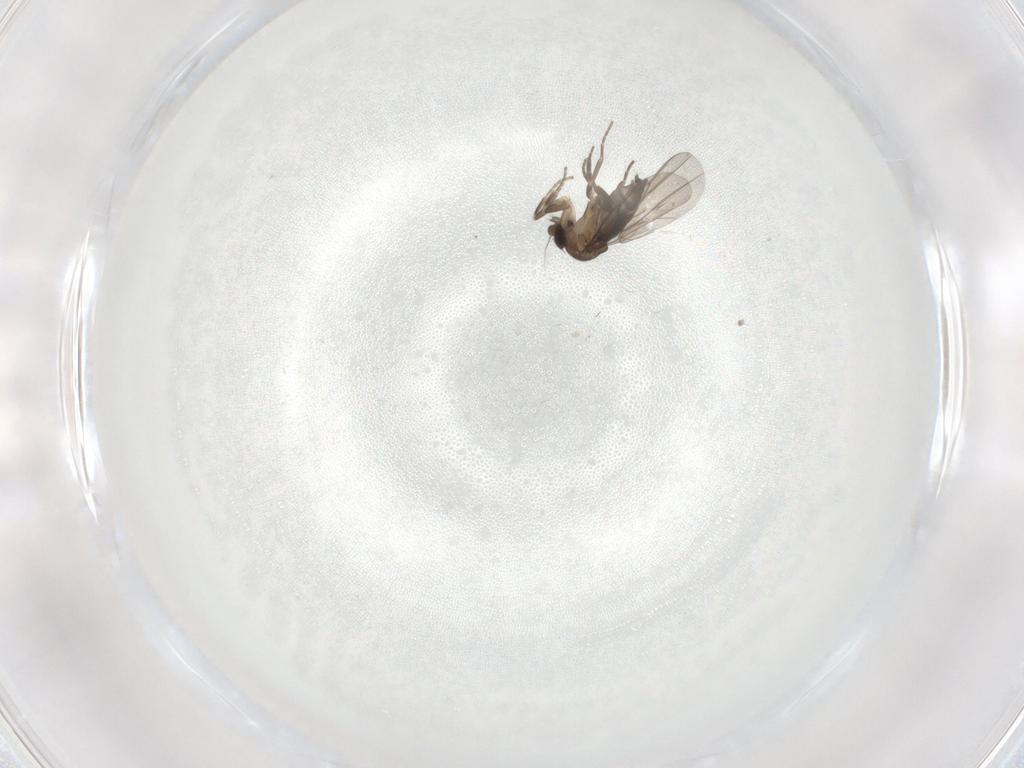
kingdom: Animalia
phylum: Arthropoda
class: Insecta
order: Diptera
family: Phoridae
